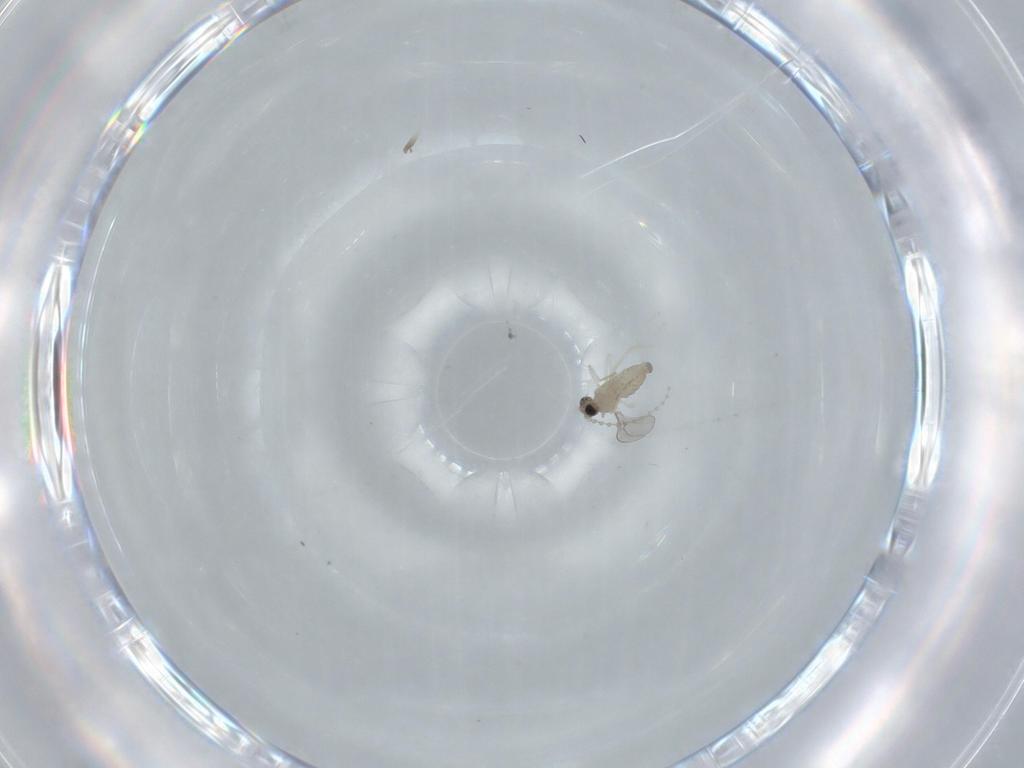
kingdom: Animalia
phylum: Arthropoda
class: Insecta
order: Diptera
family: Cecidomyiidae
